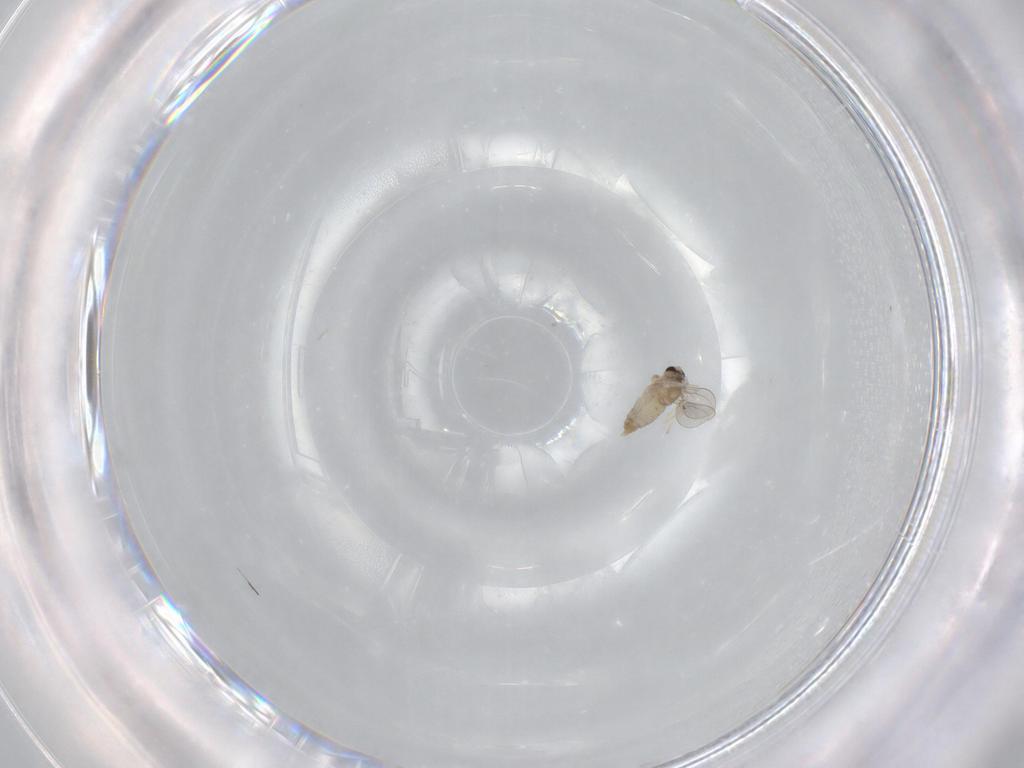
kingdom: Animalia
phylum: Arthropoda
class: Insecta
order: Diptera
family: Cecidomyiidae
